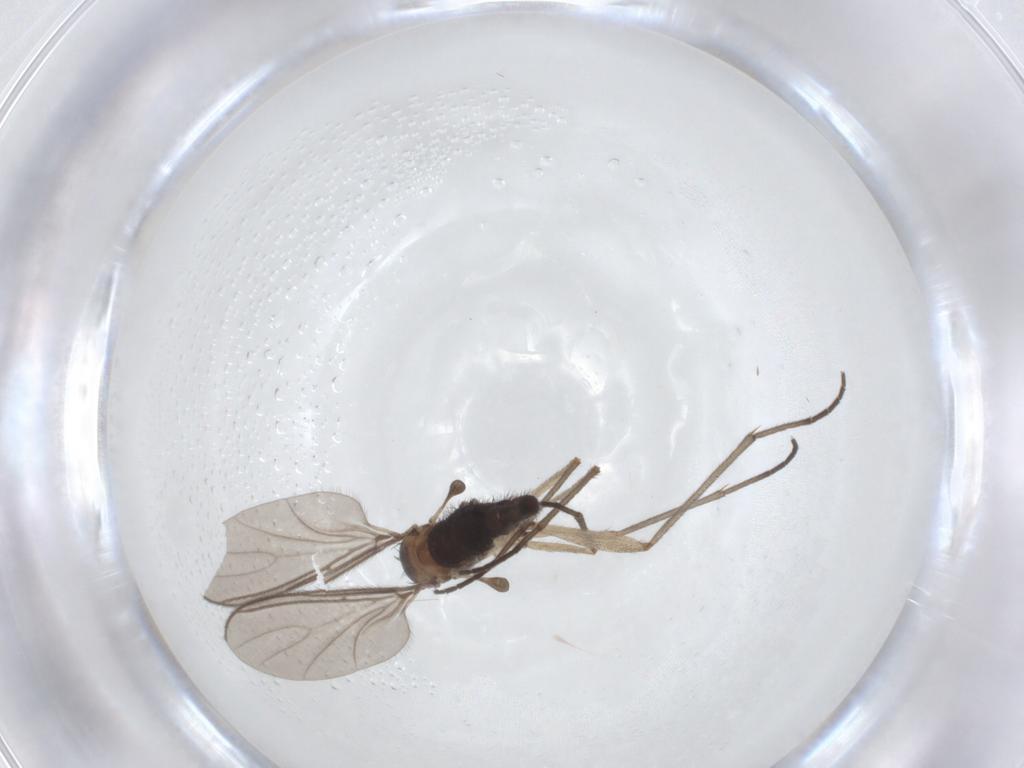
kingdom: Animalia
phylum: Arthropoda
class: Insecta
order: Diptera
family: Sciaridae
